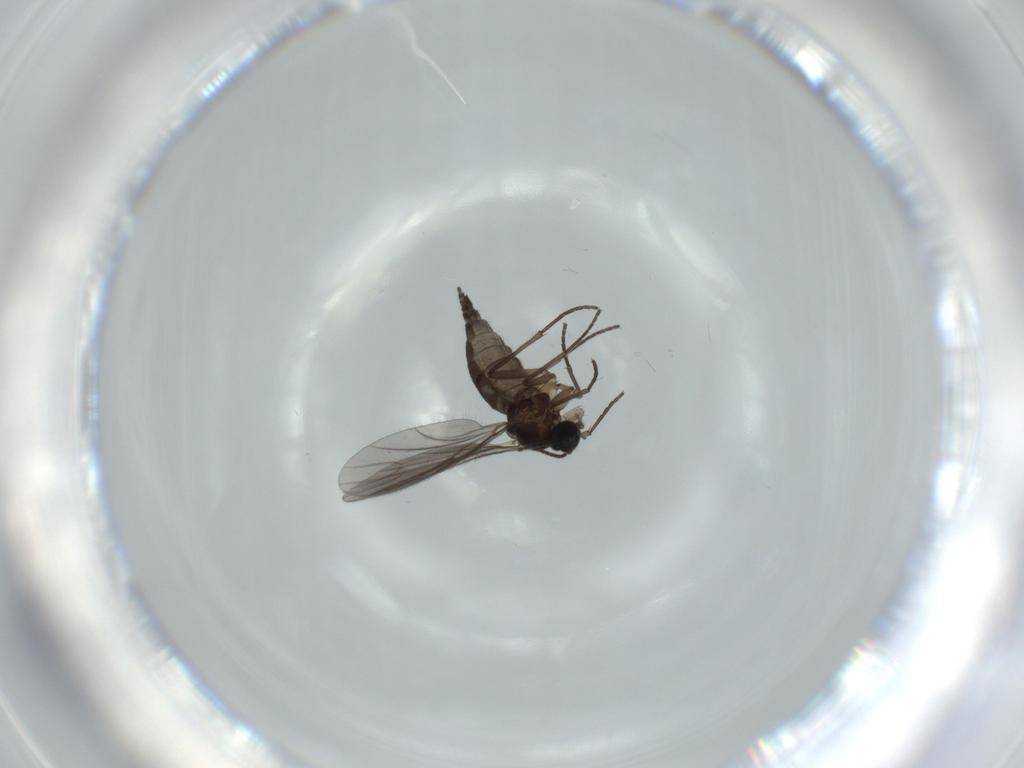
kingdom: Animalia
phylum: Arthropoda
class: Insecta
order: Diptera
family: Sciaridae
